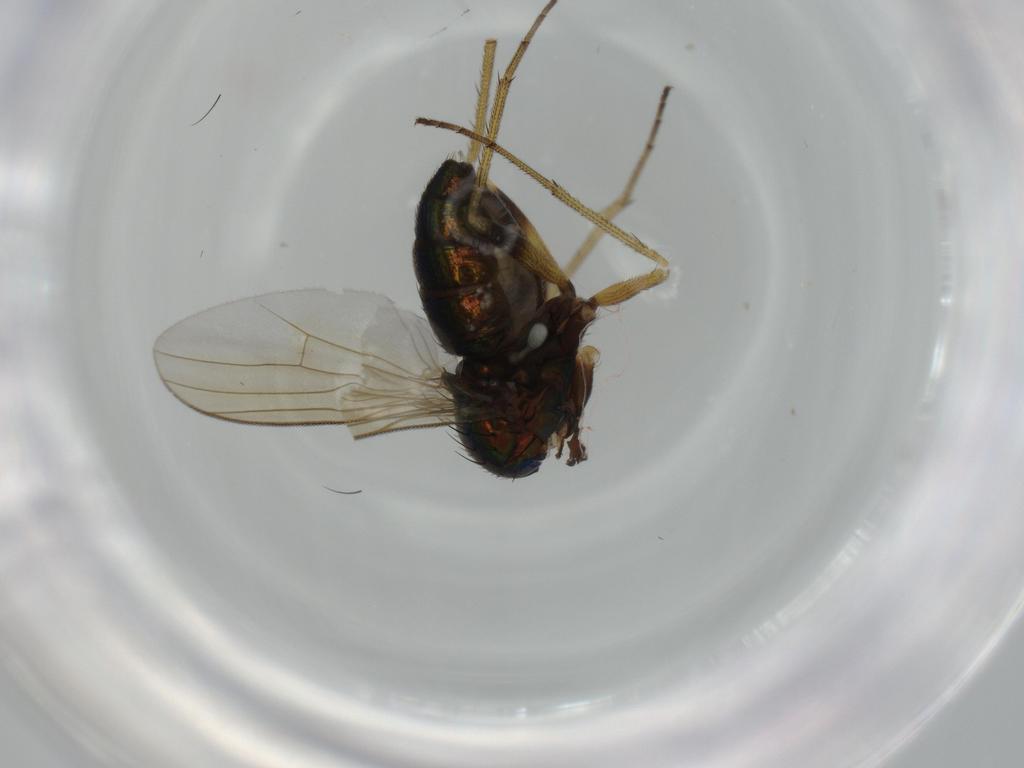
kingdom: Animalia
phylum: Arthropoda
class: Insecta
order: Diptera
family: Dolichopodidae
